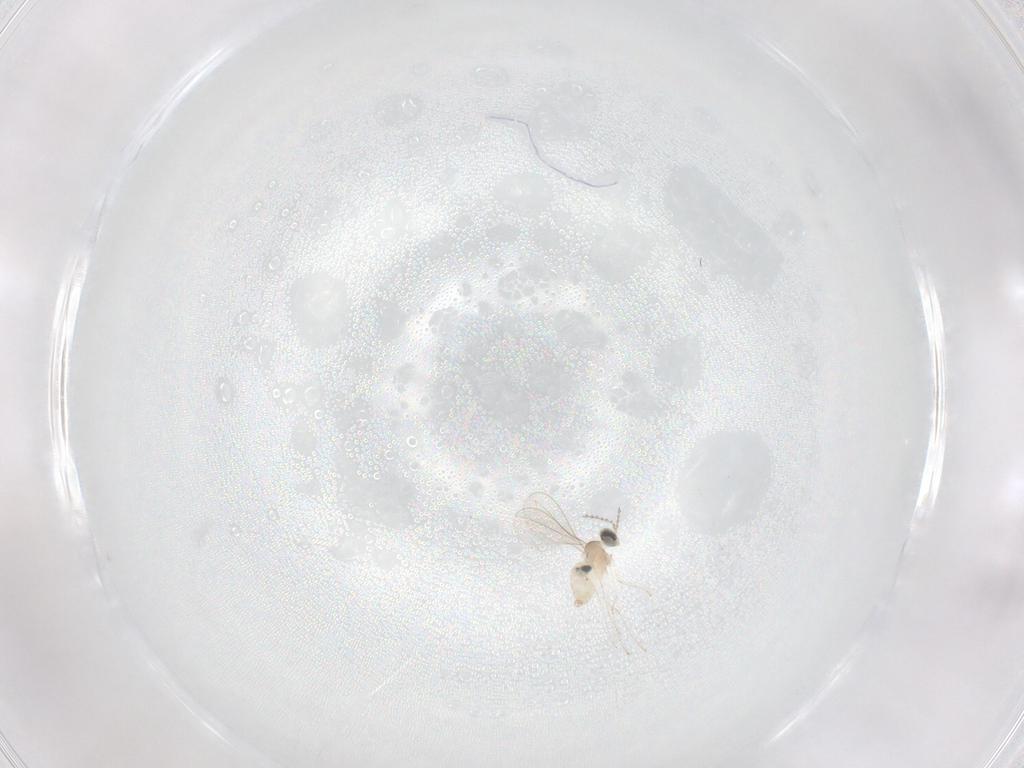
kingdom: Animalia
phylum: Arthropoda
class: Insecta
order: Diptera
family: Cecidomyiidae
